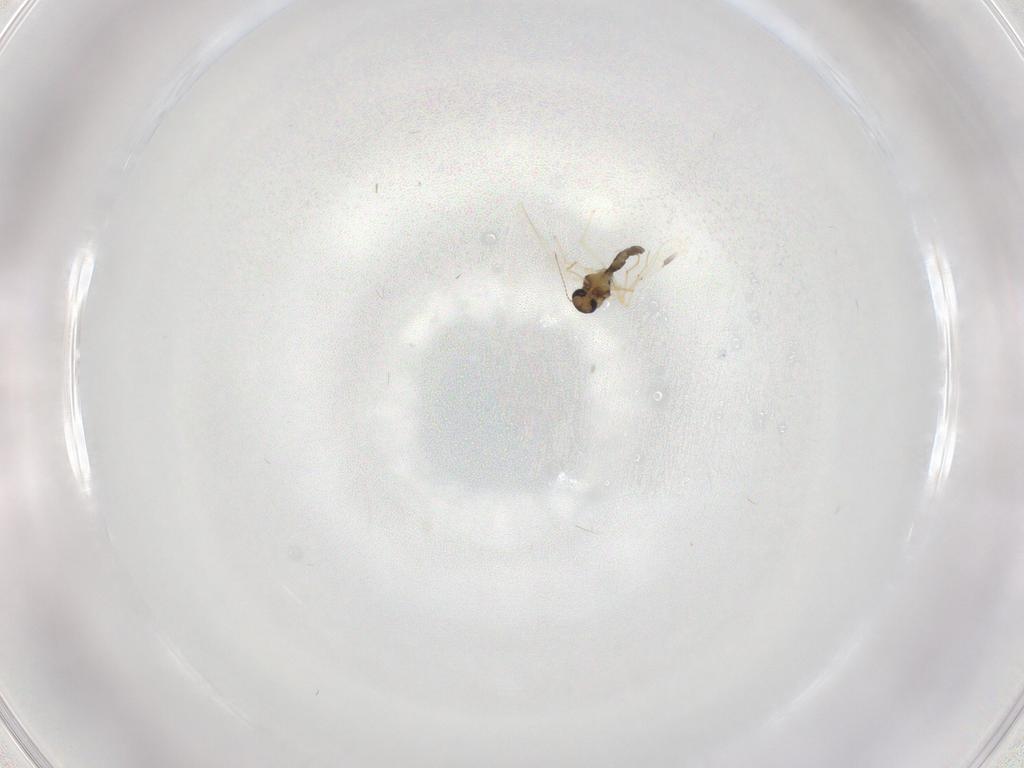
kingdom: Animalia
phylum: Arthropoda
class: Insecta
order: Diptera
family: Chironomidae
